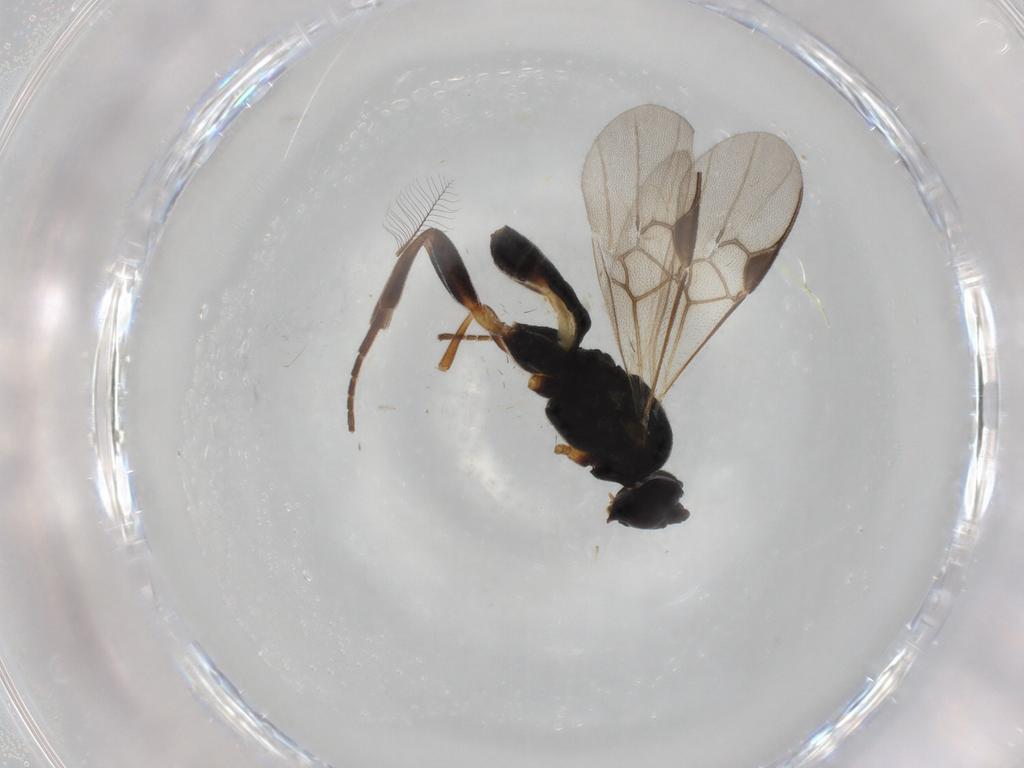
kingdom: Animalia
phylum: Arthropoda
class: Insecta
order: Hymenoptera
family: Braconidae
